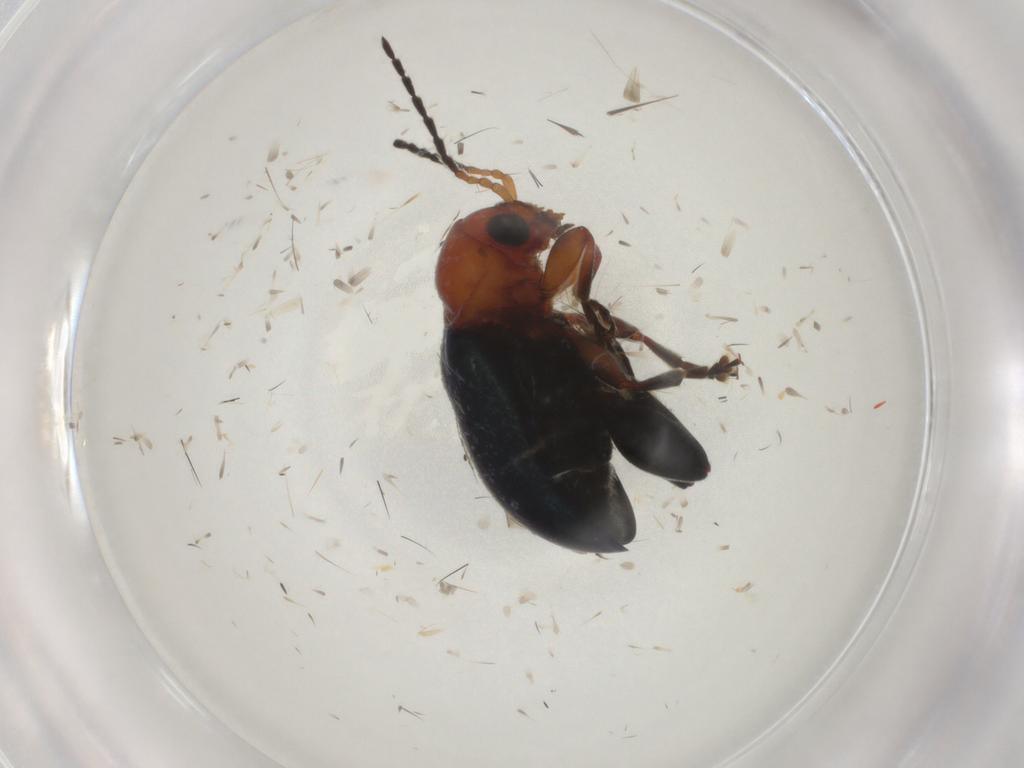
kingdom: Animalia
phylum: Arthropoda
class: Insecta
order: Coleoptera
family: Chrysomelidae
